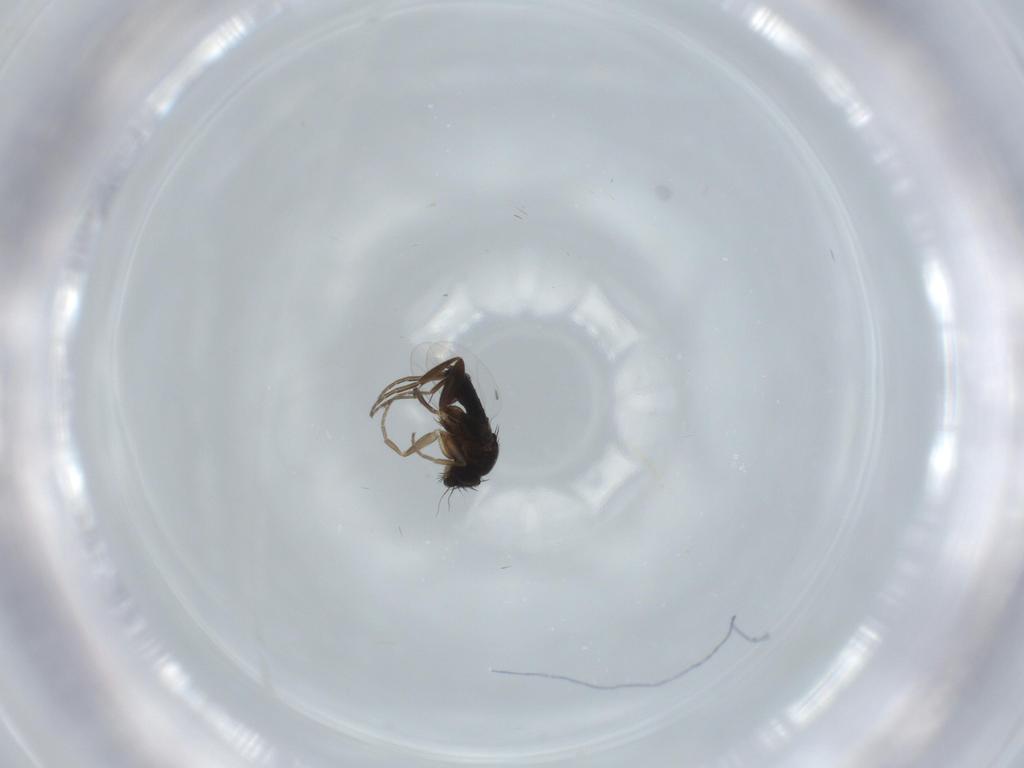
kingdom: Animalia
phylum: Arthropoda
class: Insecta
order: Diptera
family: Phoridae
